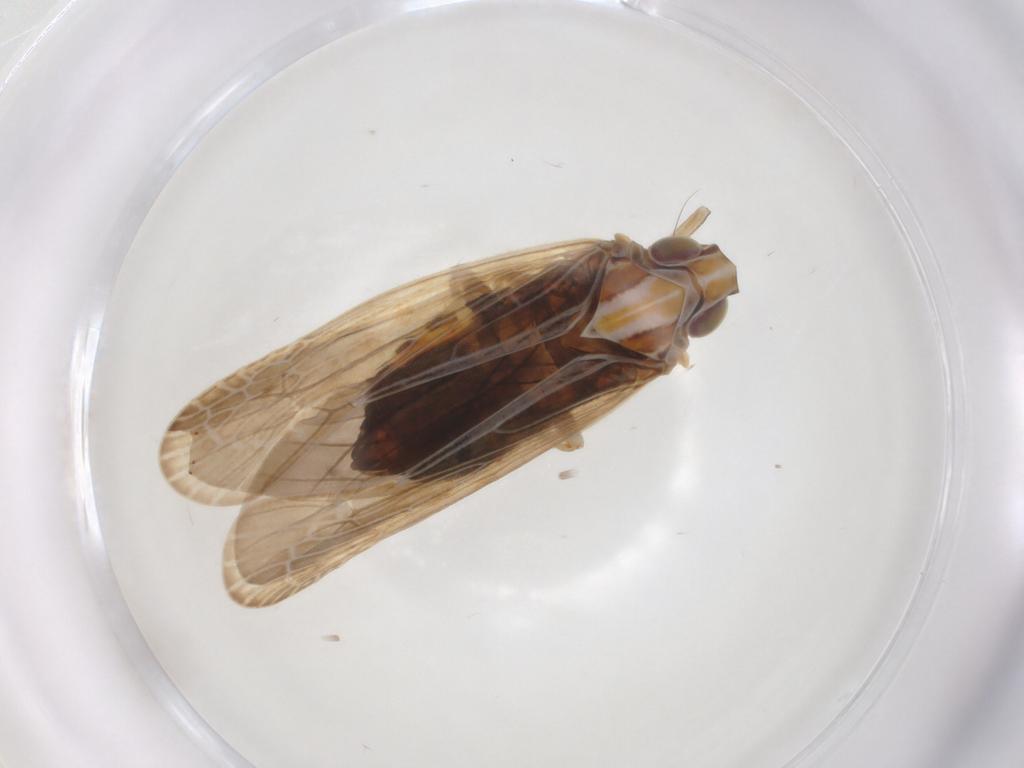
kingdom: Animalia
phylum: Arthropoda
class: Insecta
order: Hemiptera
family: Achilidae
